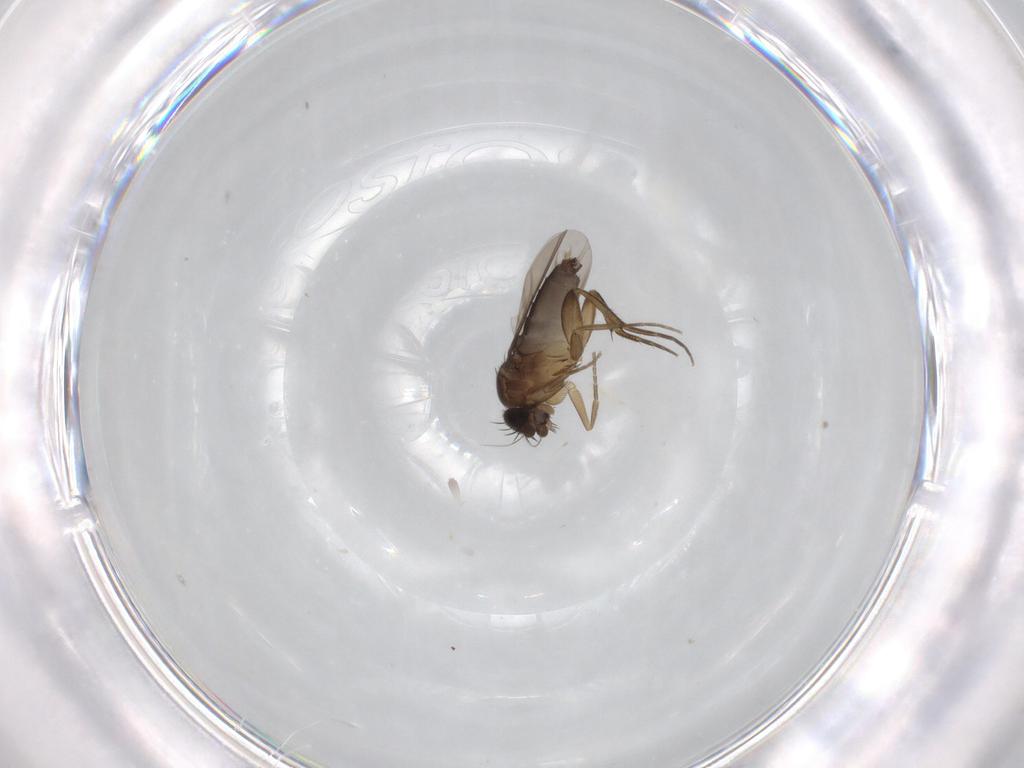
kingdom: Animalia
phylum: Arthropoda
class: Insecta
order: Diptera
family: Phoridae
